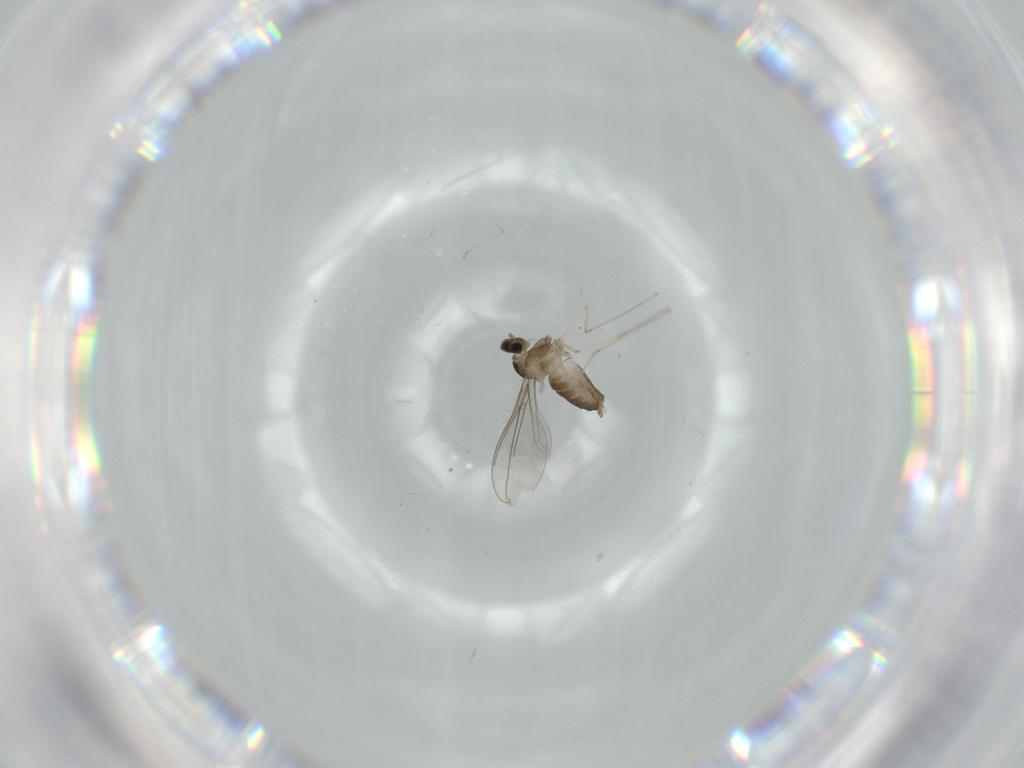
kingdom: Animalia
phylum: Arthropoda
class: Insecta
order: Diptera
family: Cecidomyiidae
